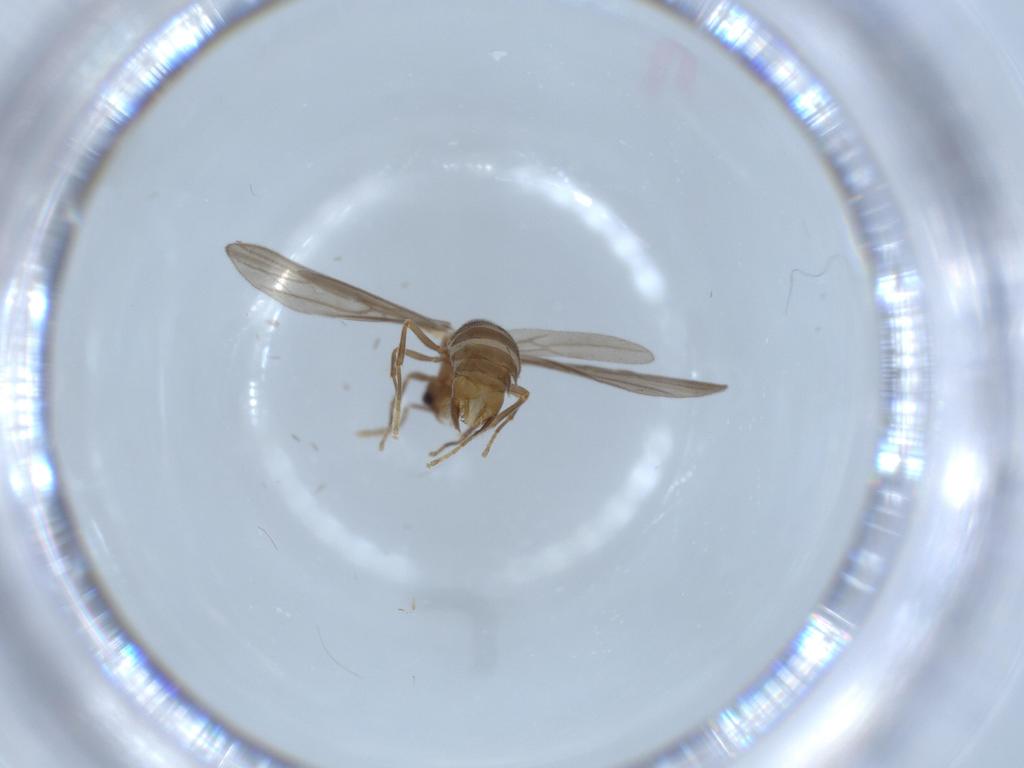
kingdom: Animalia
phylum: Arthropoda
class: Insecta
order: Hymenoptera
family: Formicidae
